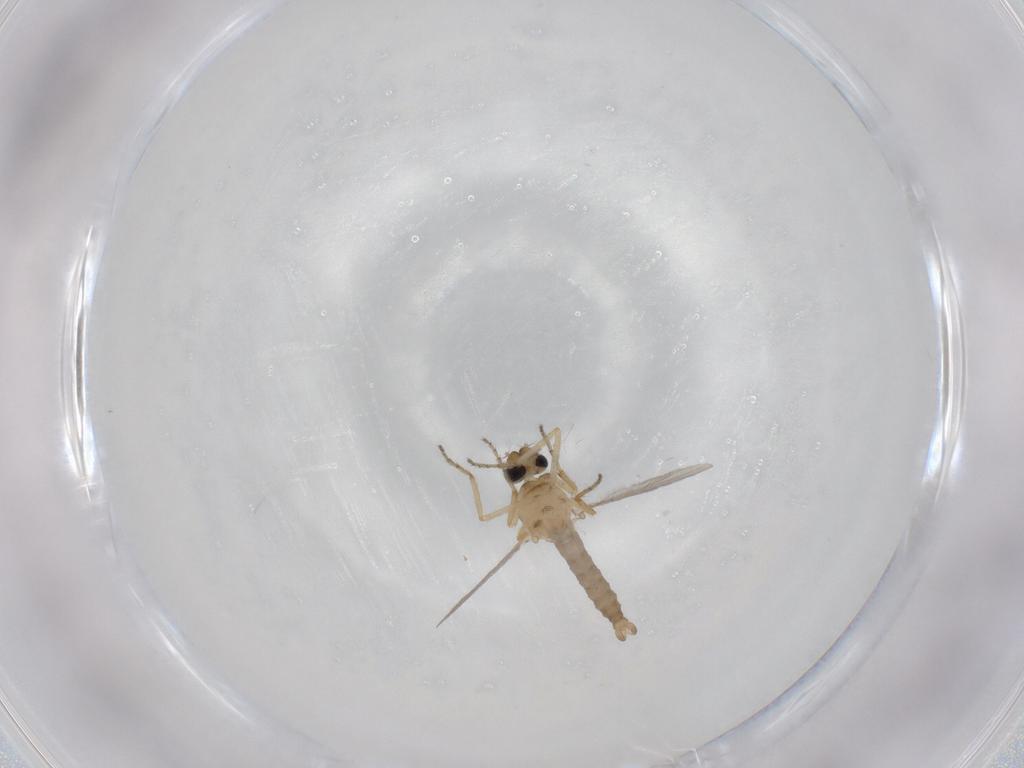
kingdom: Animalia
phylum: Arthropoda
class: Insecta
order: Diptera
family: Ceratopogonidae
